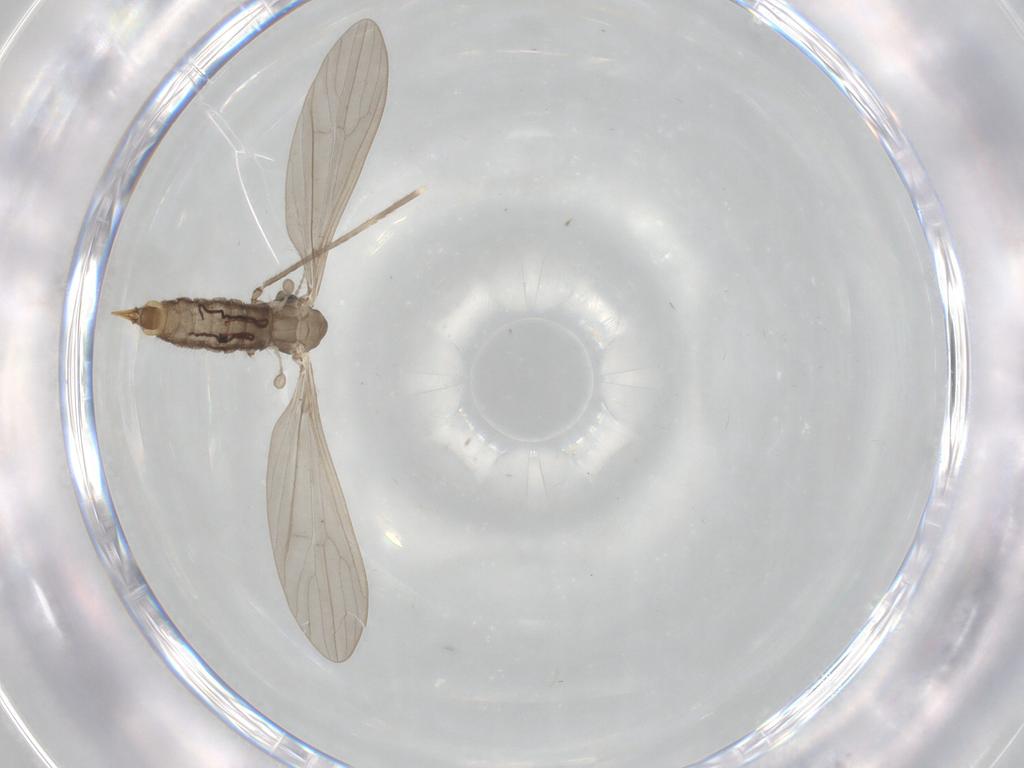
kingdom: Animalia
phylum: Arthropoda
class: Insecta
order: Diptera
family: Limoniidae
